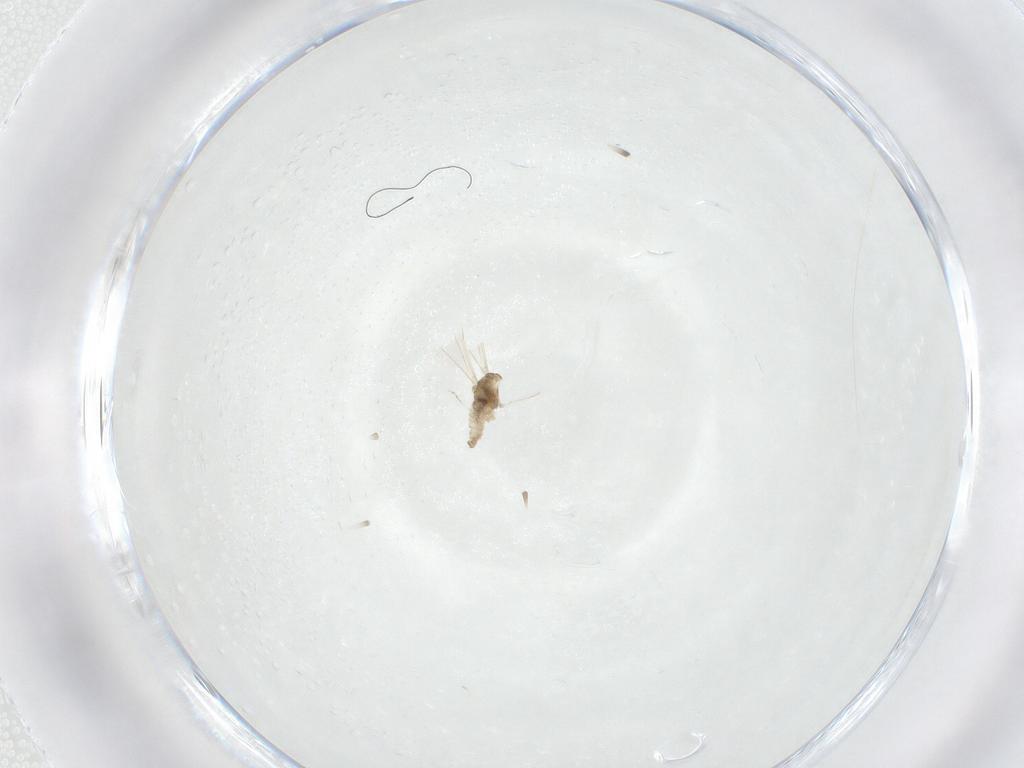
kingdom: Animalia
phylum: Arthropoda
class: Insecta
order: Diptera
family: Cecidomyiidae
